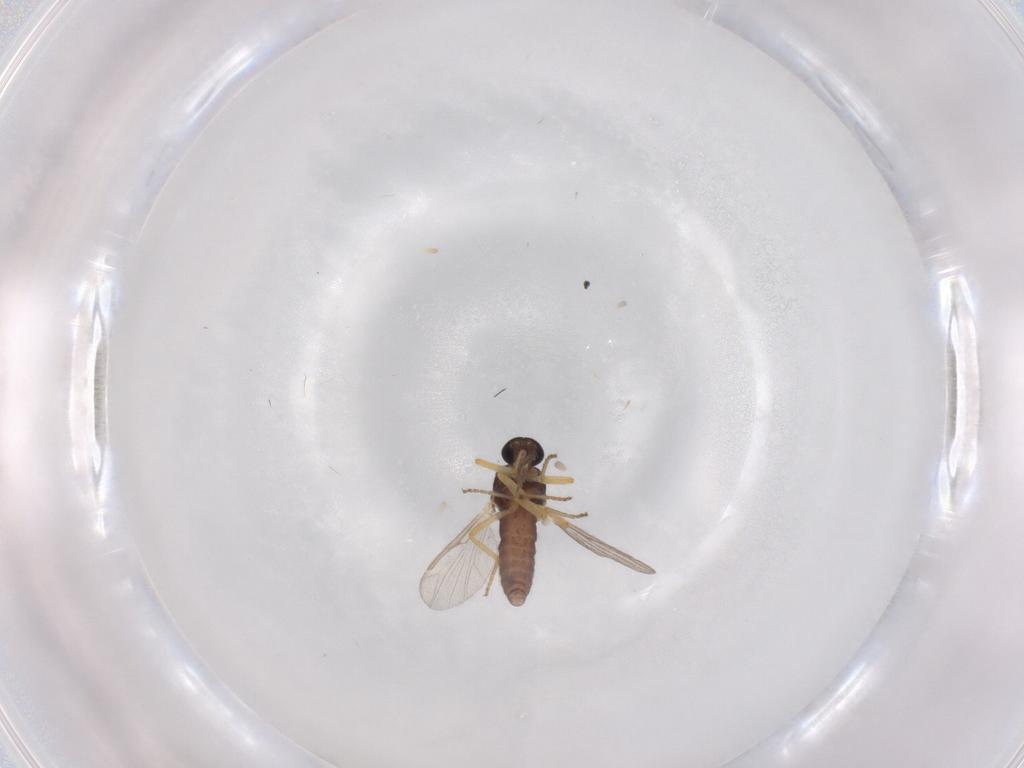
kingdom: Animalia
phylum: Arthropoda
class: Insecta
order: Diptera
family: Ceratopogonidae
